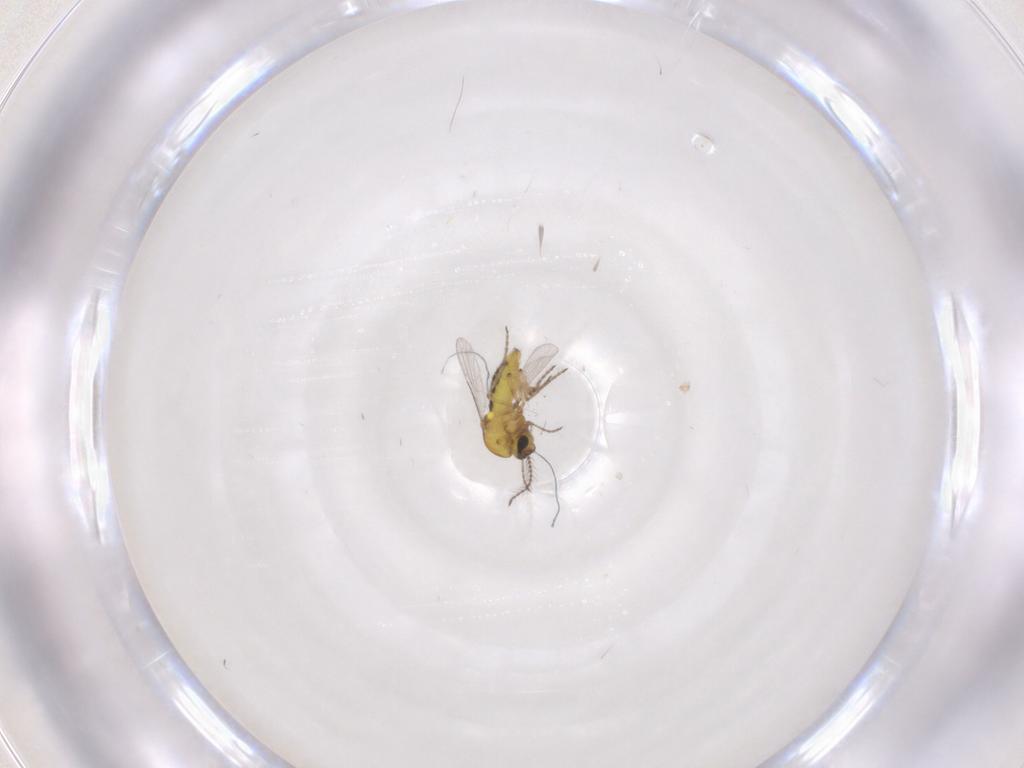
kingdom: Animalia
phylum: Arthropoda
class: Insecta
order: Diptera
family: Ceratopogonidae
